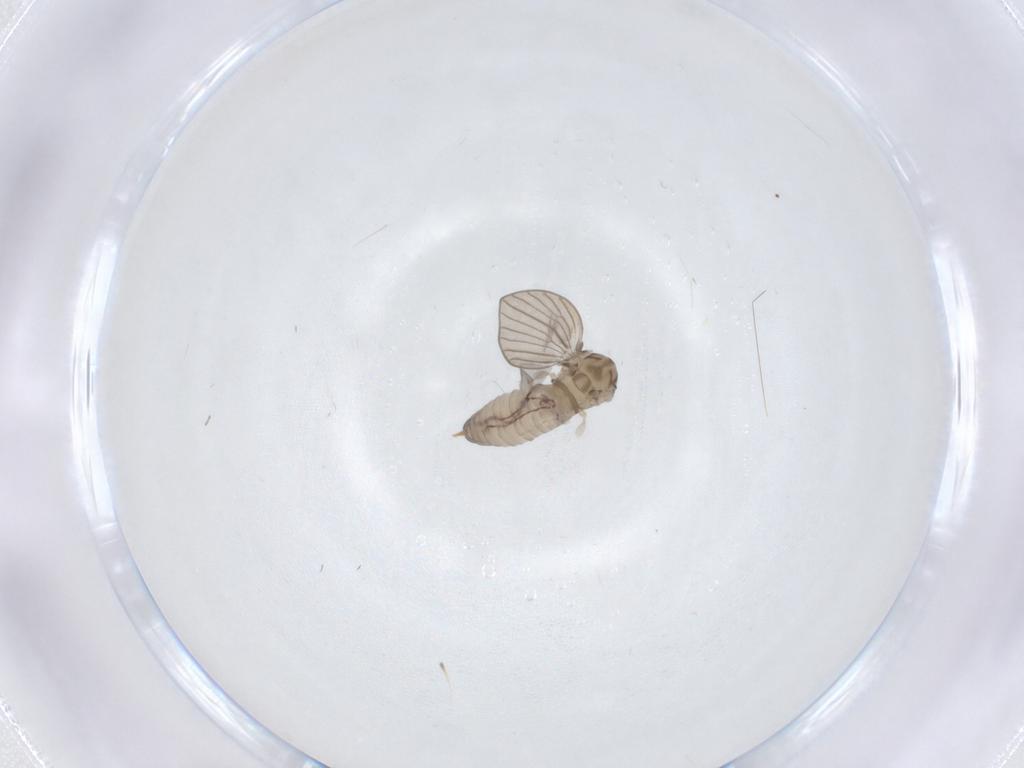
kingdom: Animalia
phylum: Arthropoda
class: Insecta
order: Diptera
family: Psychodidae
